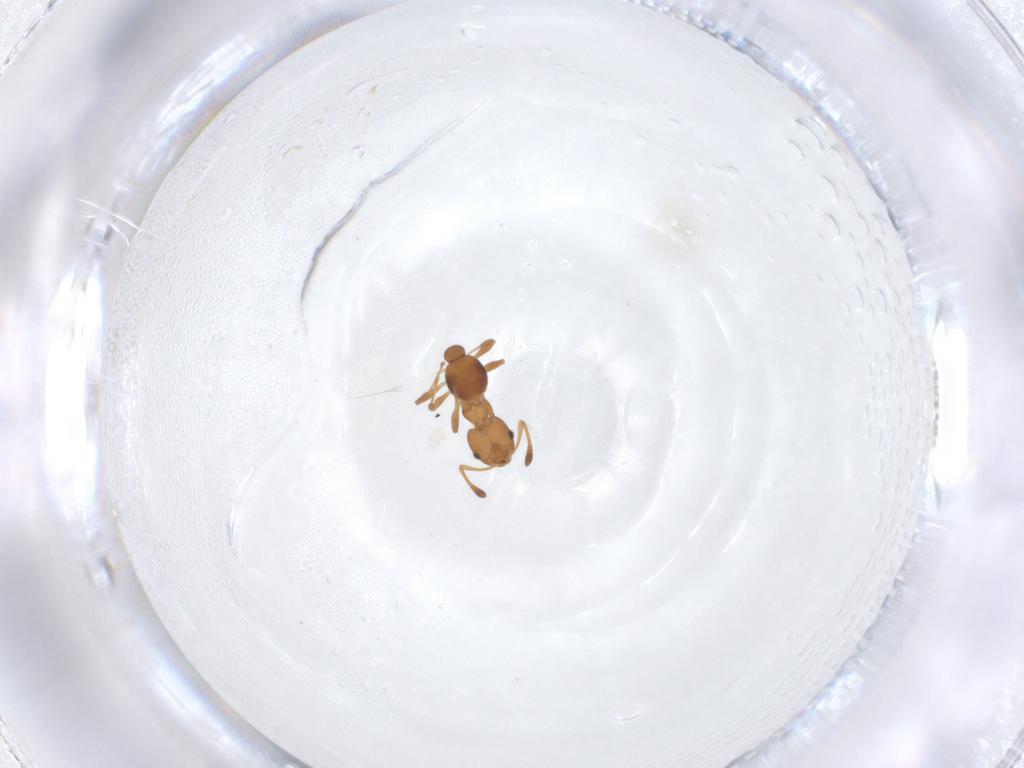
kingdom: Animalia
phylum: Arthropoda
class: Insecta
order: Hymenoptera
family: Formicidae
